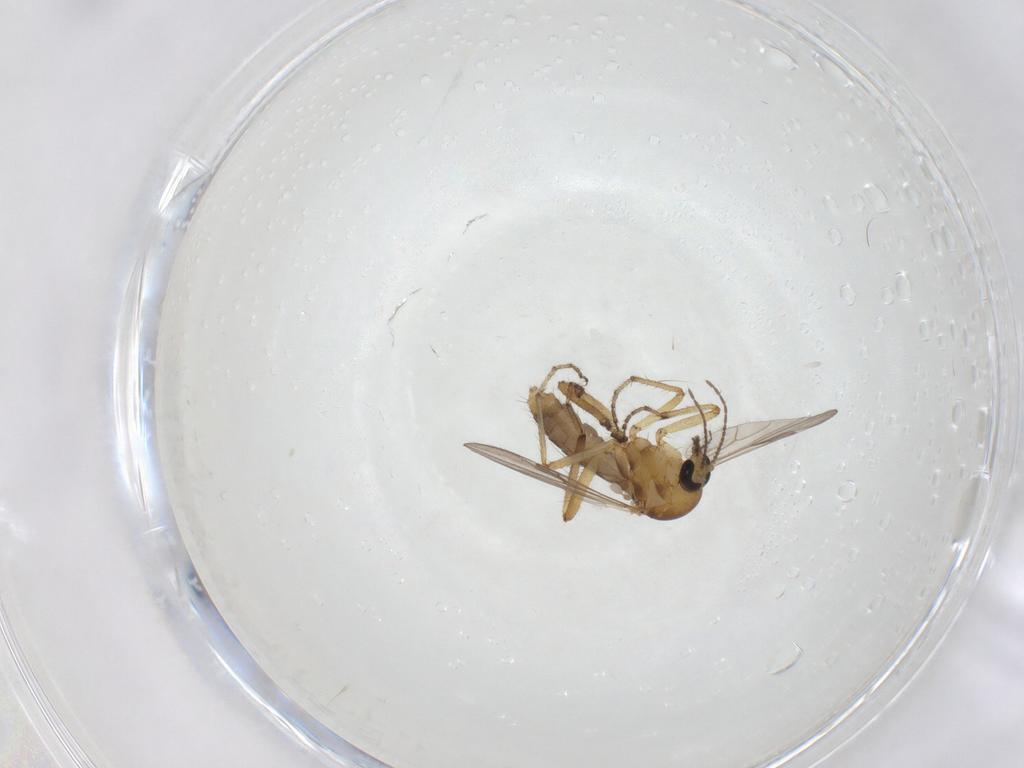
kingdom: Animalia
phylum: Arthropoda
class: Insecta
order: Diptera
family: Ceratopogonidae
